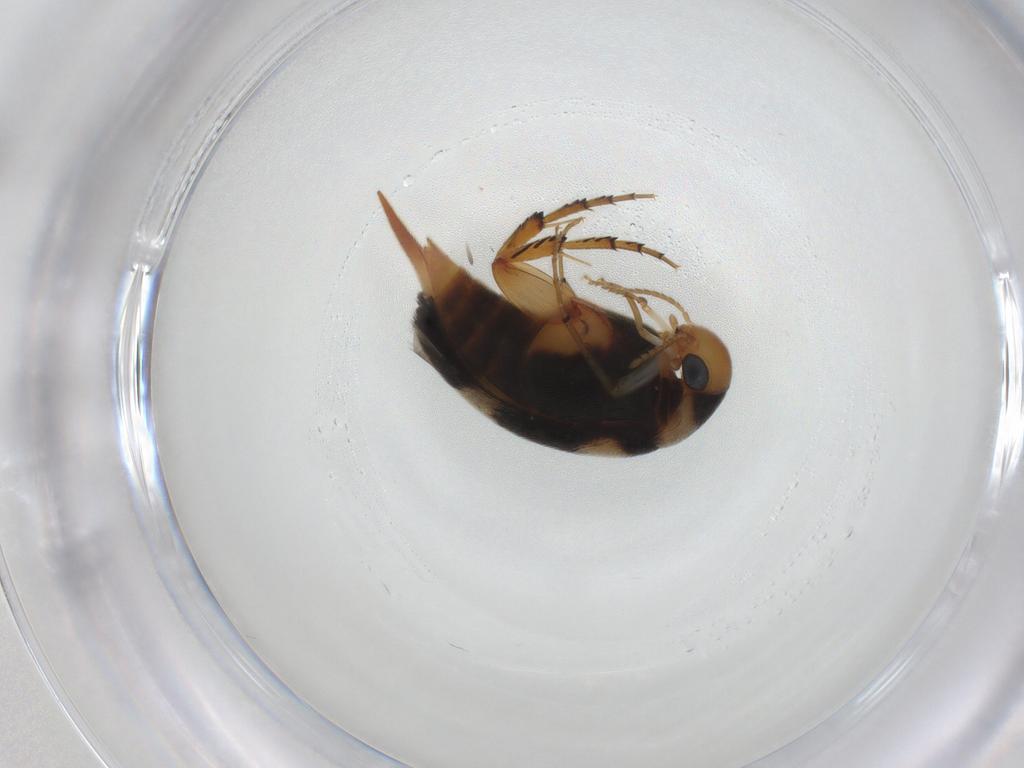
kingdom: Animalia
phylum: Arthropoda
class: Insecta
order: Coleoptera
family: Mordellidae
